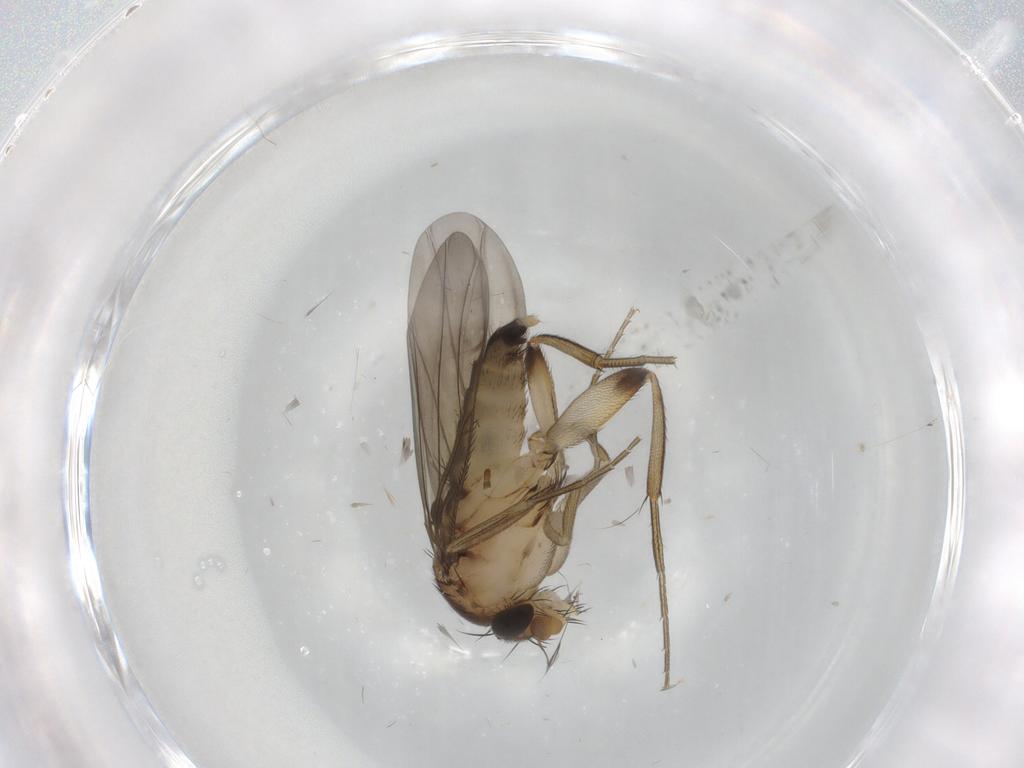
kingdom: Animalia
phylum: Arthropoda
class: Insecta
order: Diptera
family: Phoridae
